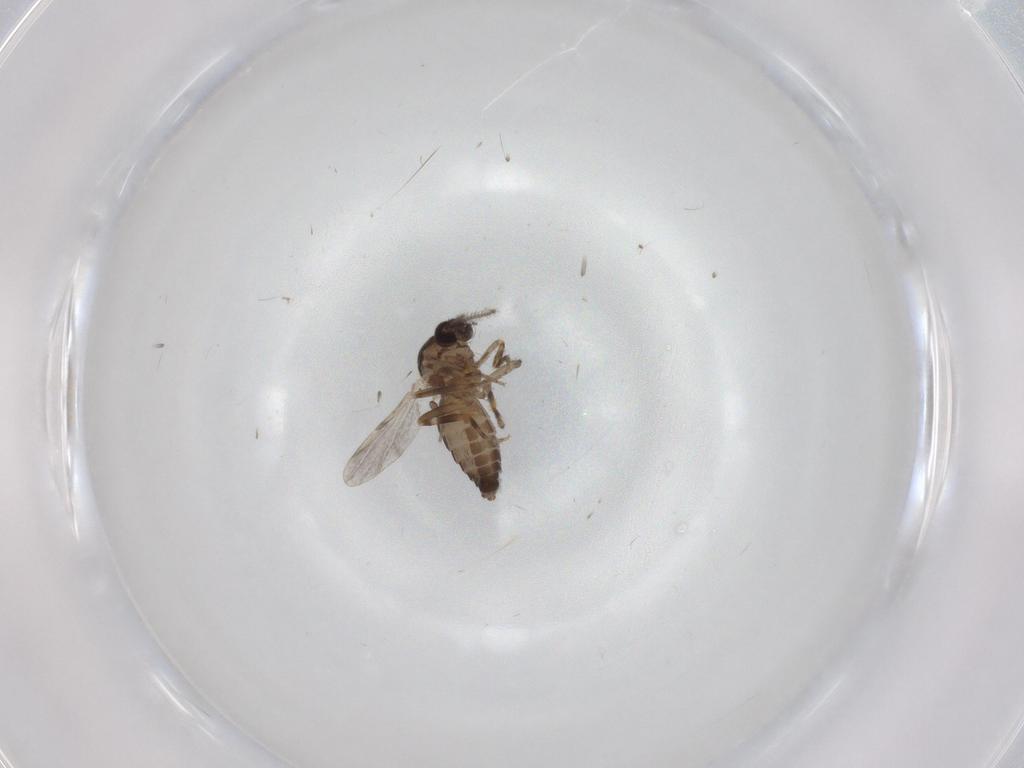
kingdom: Animalia
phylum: Arthropoda
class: Insecta
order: Diptera
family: Ceratopogonidae
